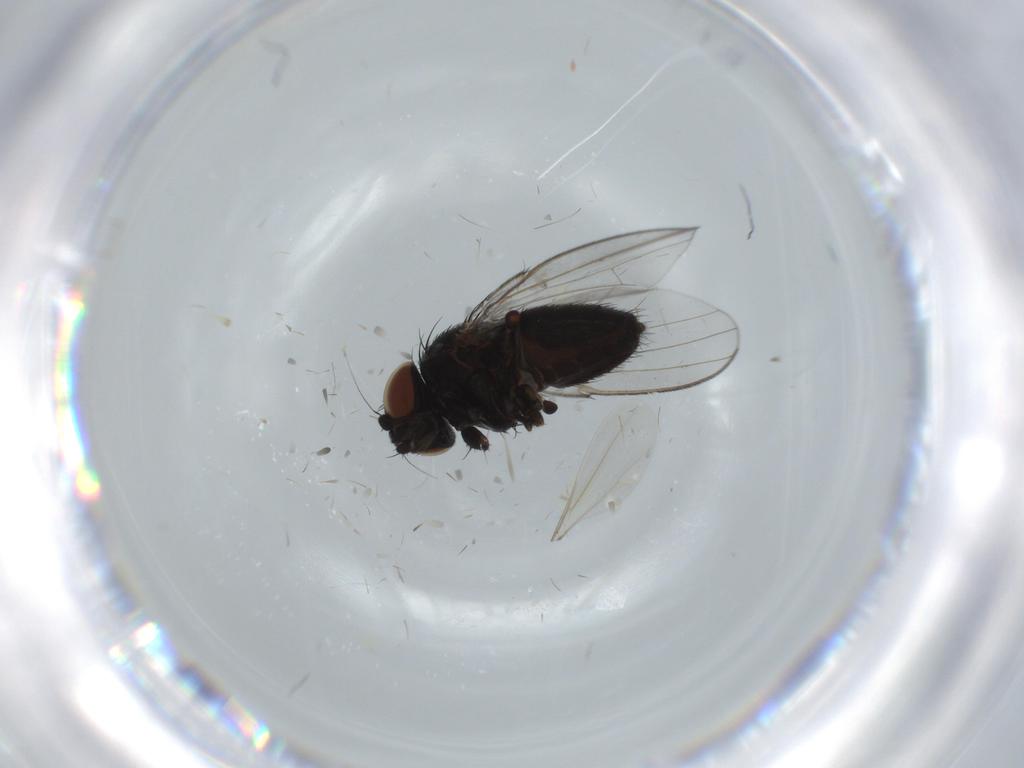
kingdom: Animalia
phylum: Arthropoda
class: Insecta
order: Diptera
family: Milichiidae
